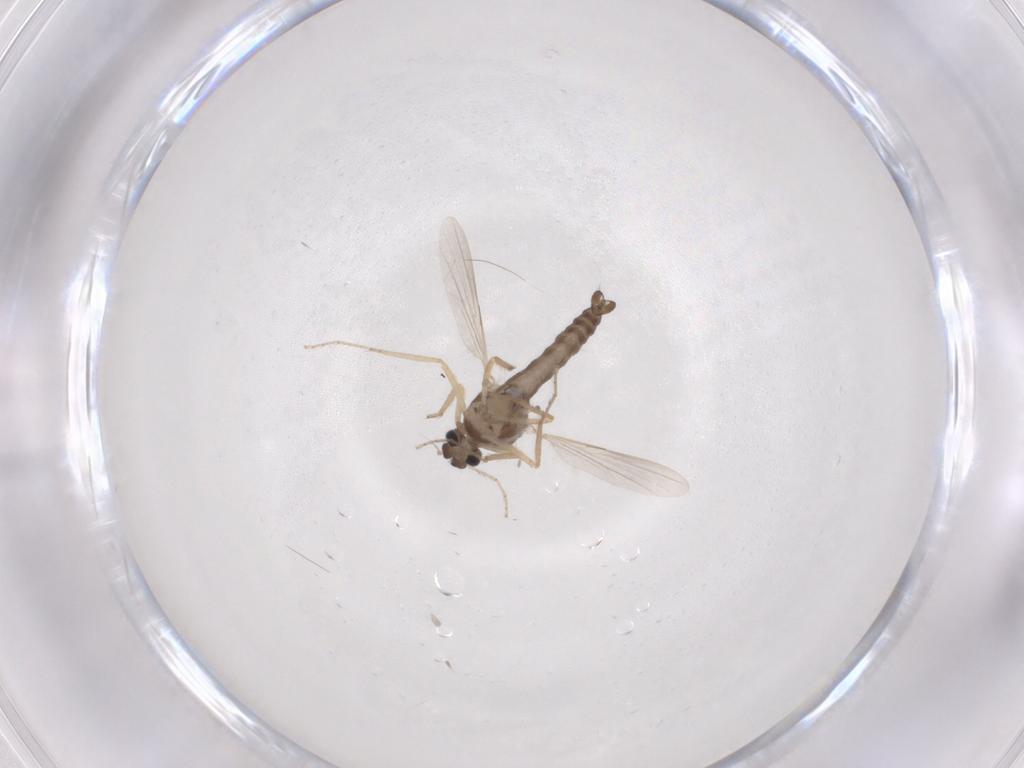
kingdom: Animalia
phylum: Arthropoda
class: Insecta
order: Diptera
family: Ceratopogonidae
